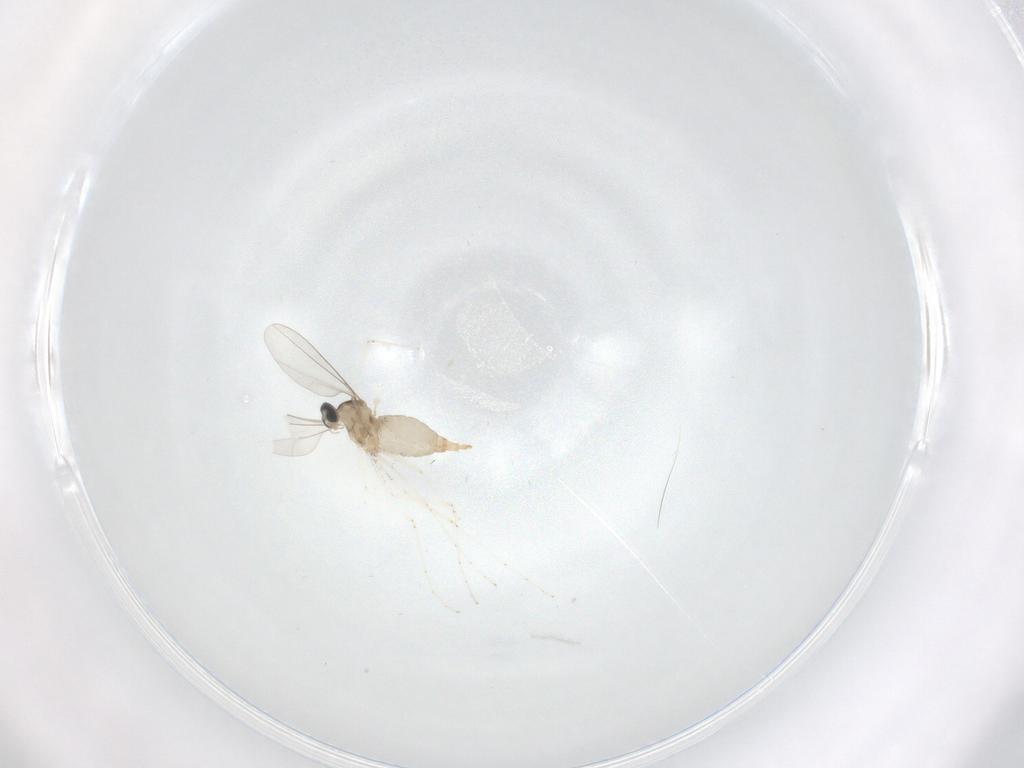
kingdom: Animalia
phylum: Arthropoda
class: Insecta
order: Diptera
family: Cecidomyiidae
